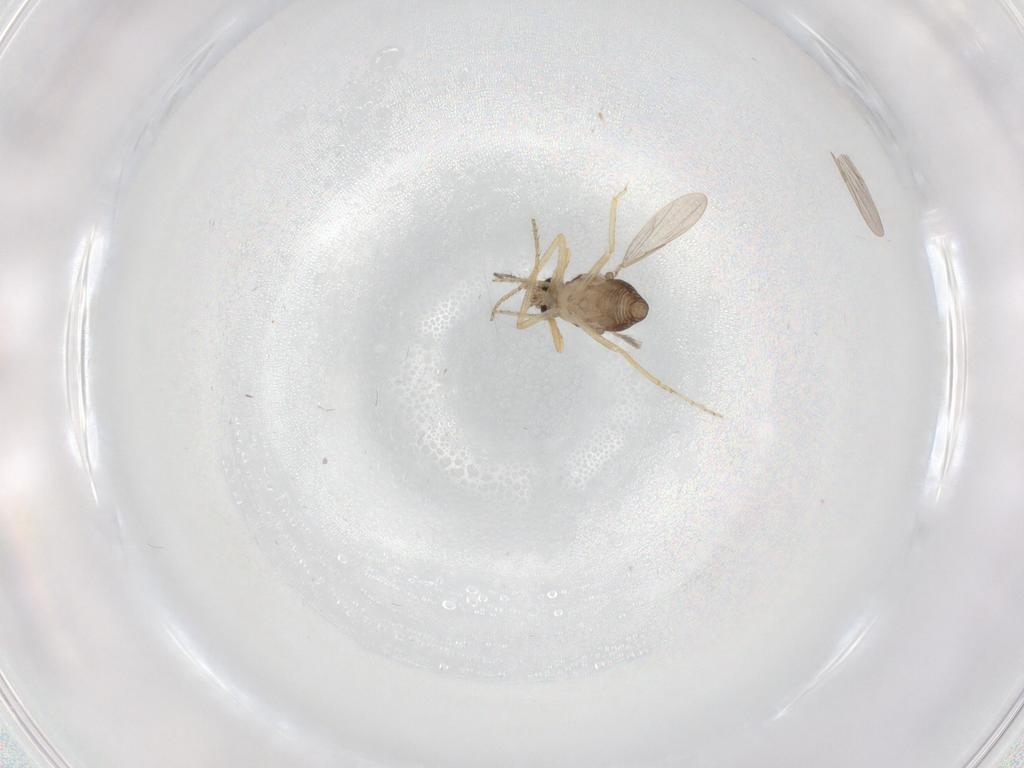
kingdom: Animalia
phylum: Arthropoda
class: Insecta
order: Diptera
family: Ceratopogonidae
